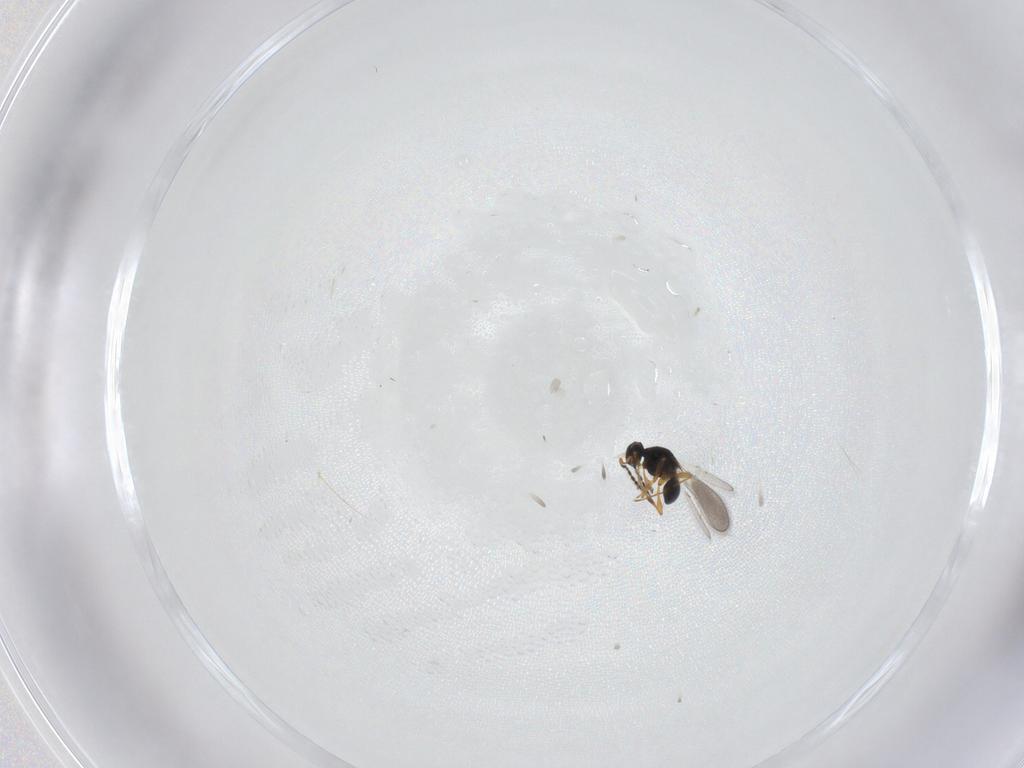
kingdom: Animalia
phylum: Arthropoda
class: Insecta
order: Hymenoptera
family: Platygastridae
